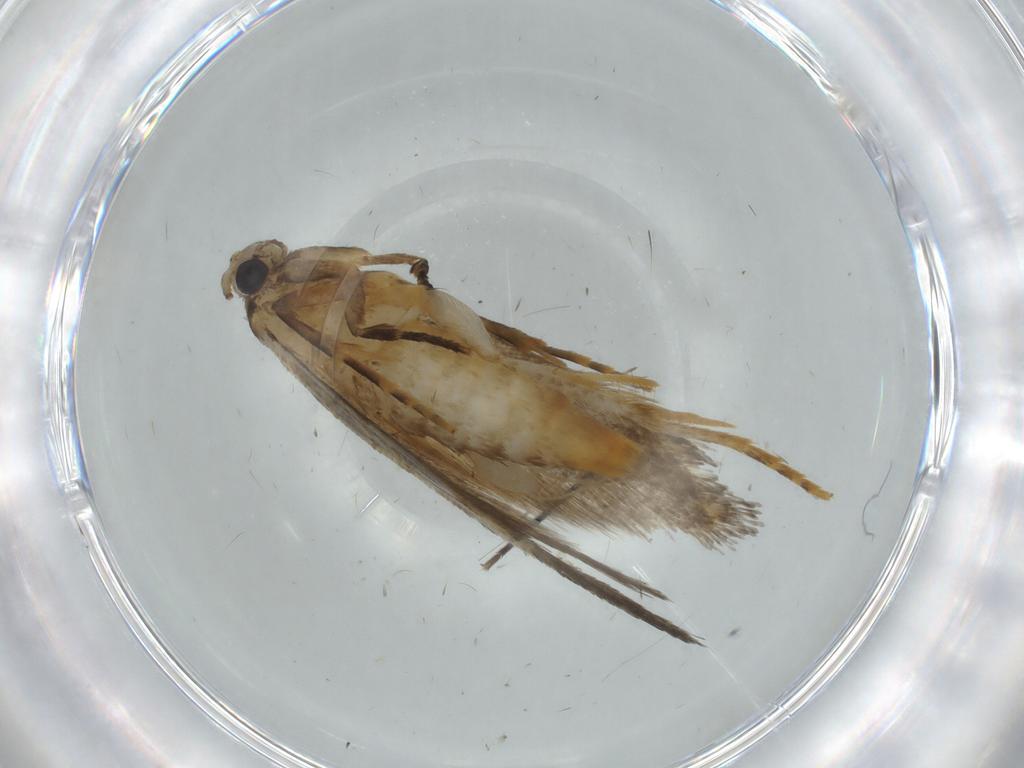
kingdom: Animalia
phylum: Arthropoda
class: Insecta
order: Lepidoptera
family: Tineidae
